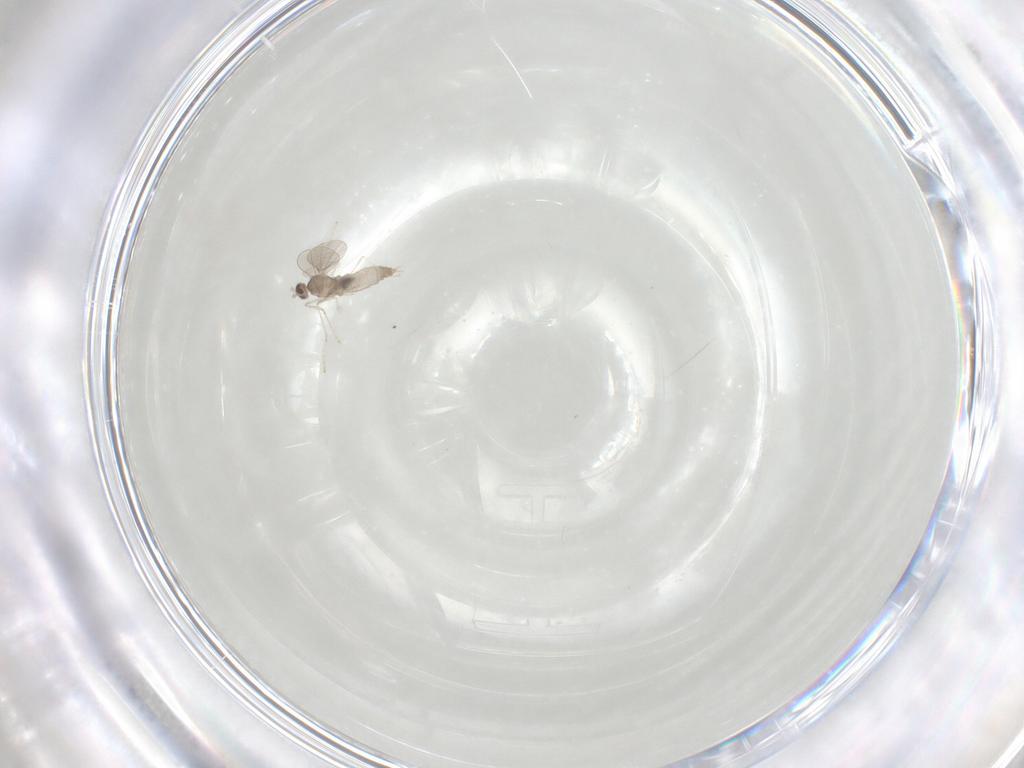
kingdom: Animalia
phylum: Arthropoda
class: Insecta
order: Diptera
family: Cecidomyiidae
